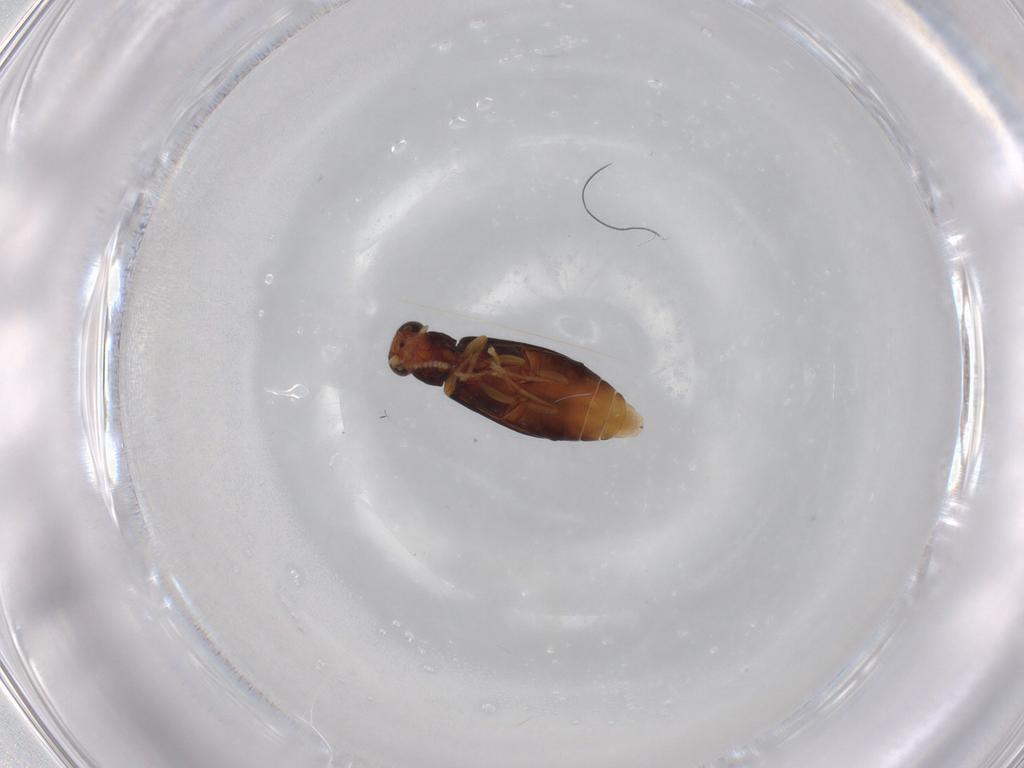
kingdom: Animalia
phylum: Arthropoda
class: Insecta
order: Coleoptera
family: Mycteridae
